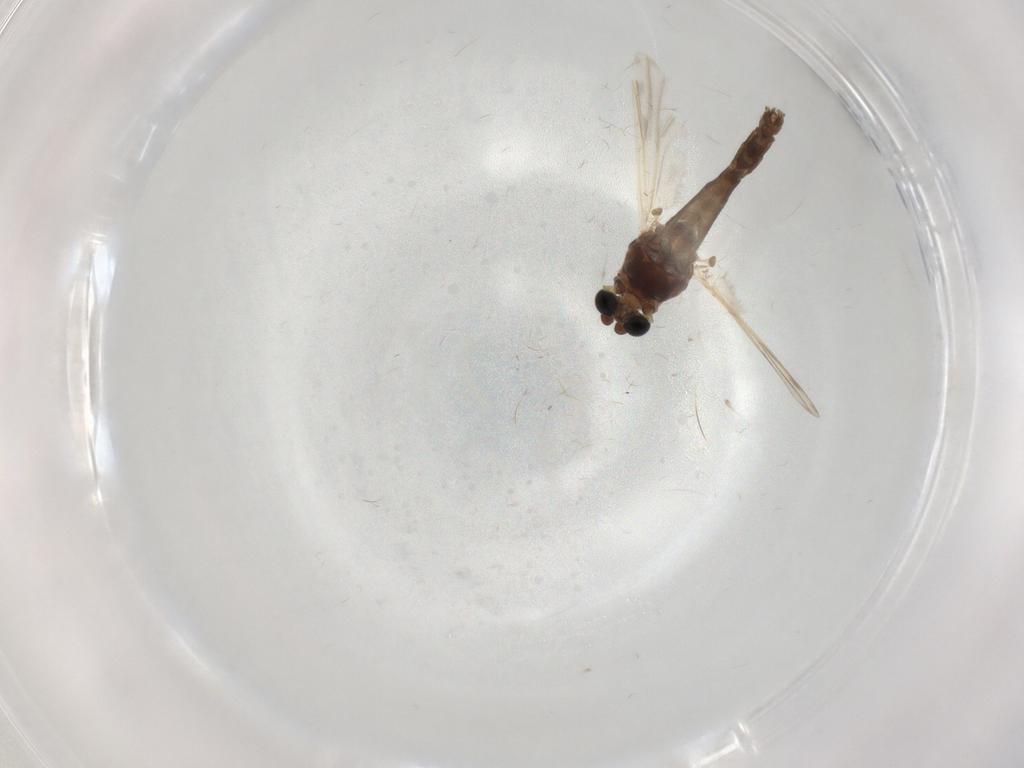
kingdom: Animalia
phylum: Arthropoda
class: Insecta
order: Diptera
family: Chironomidae
